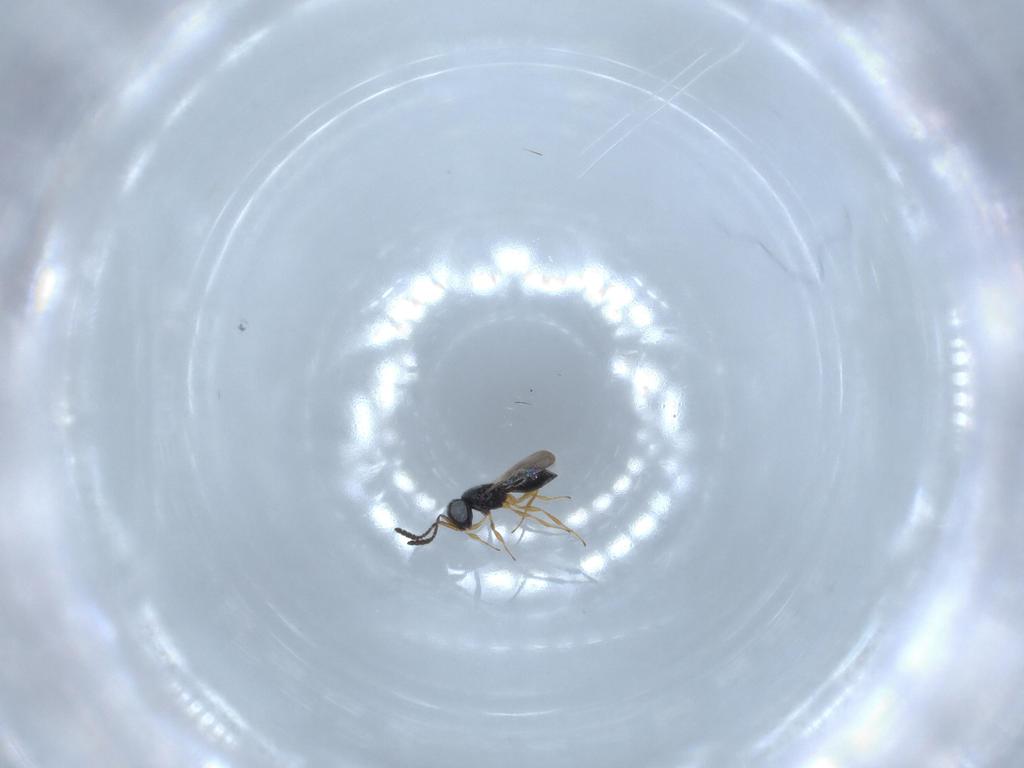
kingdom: Animalia
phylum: Arthropoda
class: Insecta
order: Hymenoptera
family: Scelionidae
